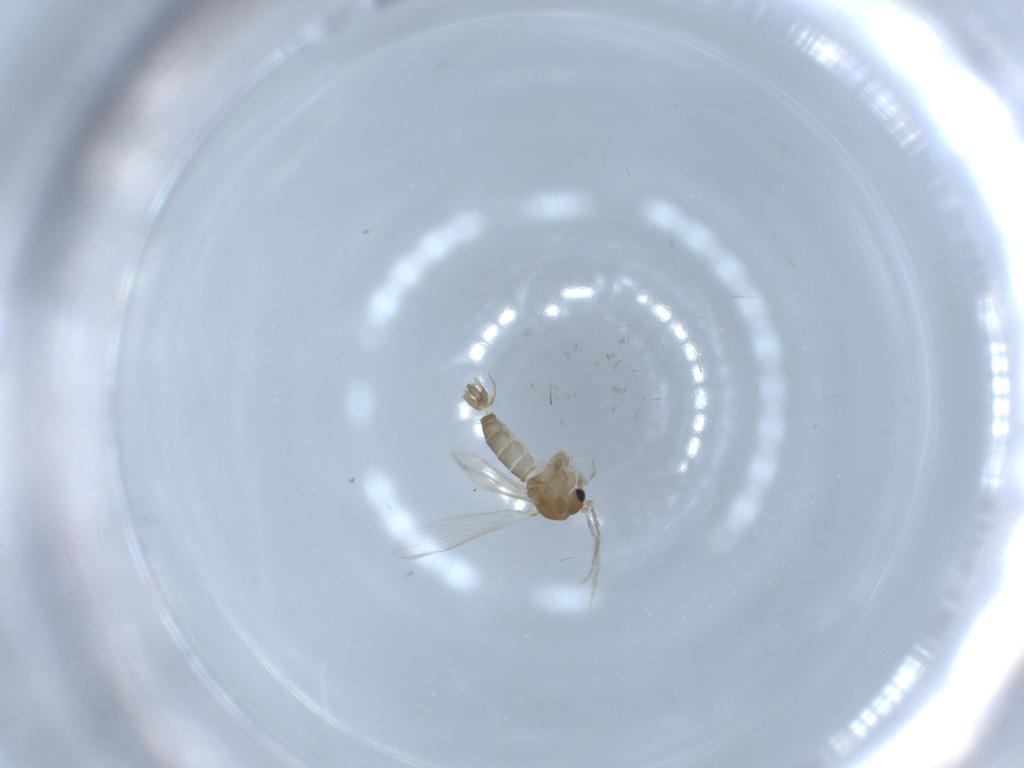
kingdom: Animalia
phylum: Arthropoda
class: Insecta
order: Diptera
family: Psychodidae
